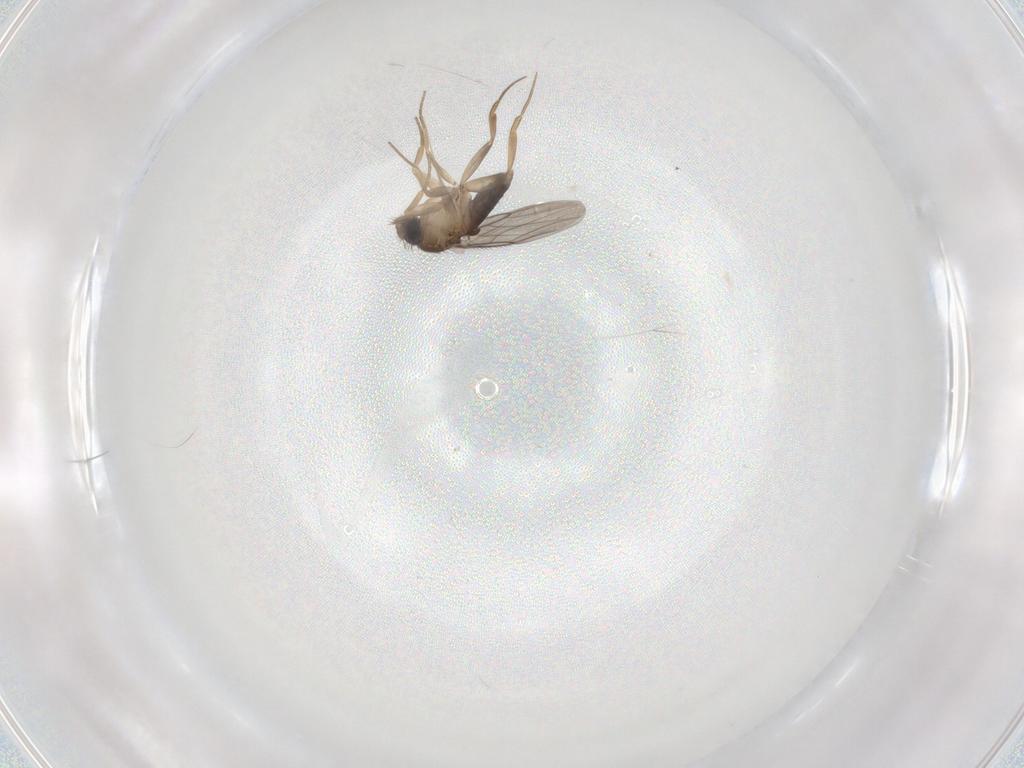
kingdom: Animalia
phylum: Arthropoda
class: Insecta
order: Diptera
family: Phoridae
